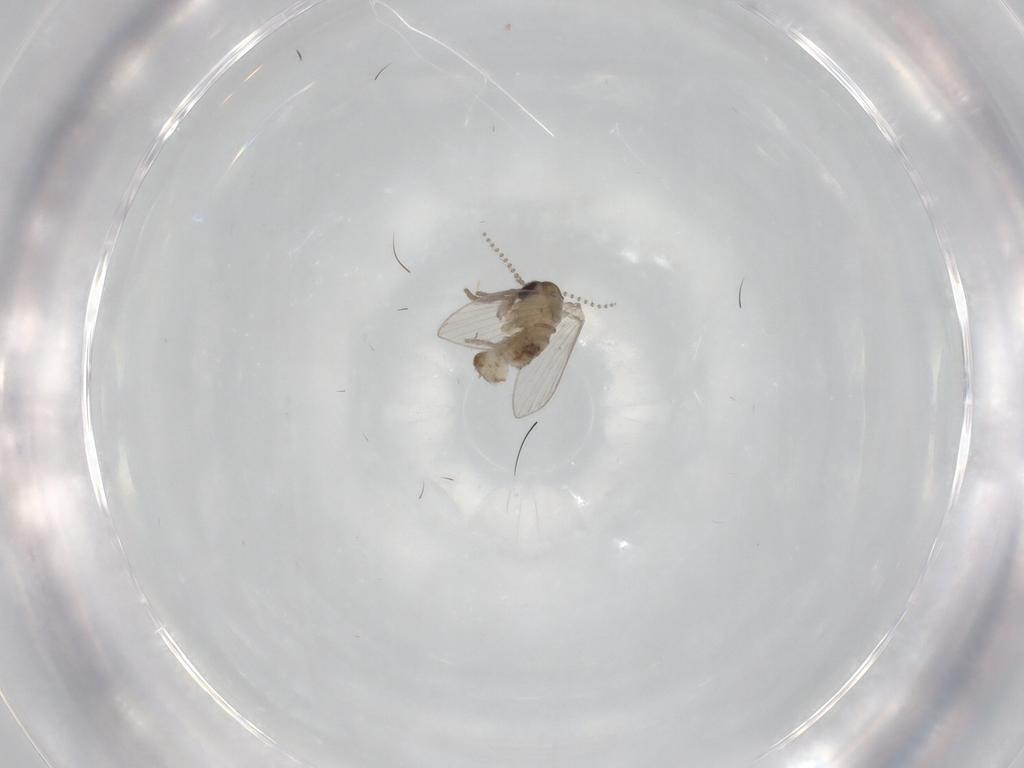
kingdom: Animalia
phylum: Arthropoda
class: Insecta
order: Diptera
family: Psychodidae
